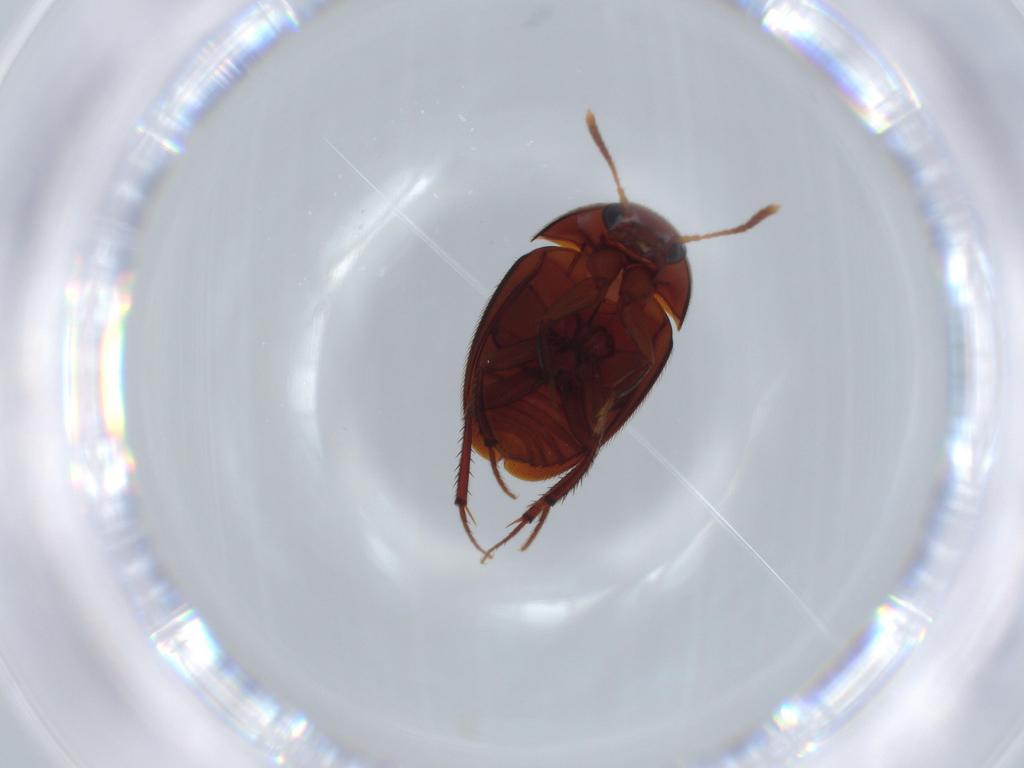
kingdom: Animalia
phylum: Arthropoda
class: Insecta
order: Coleoptera
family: Leiodidae
